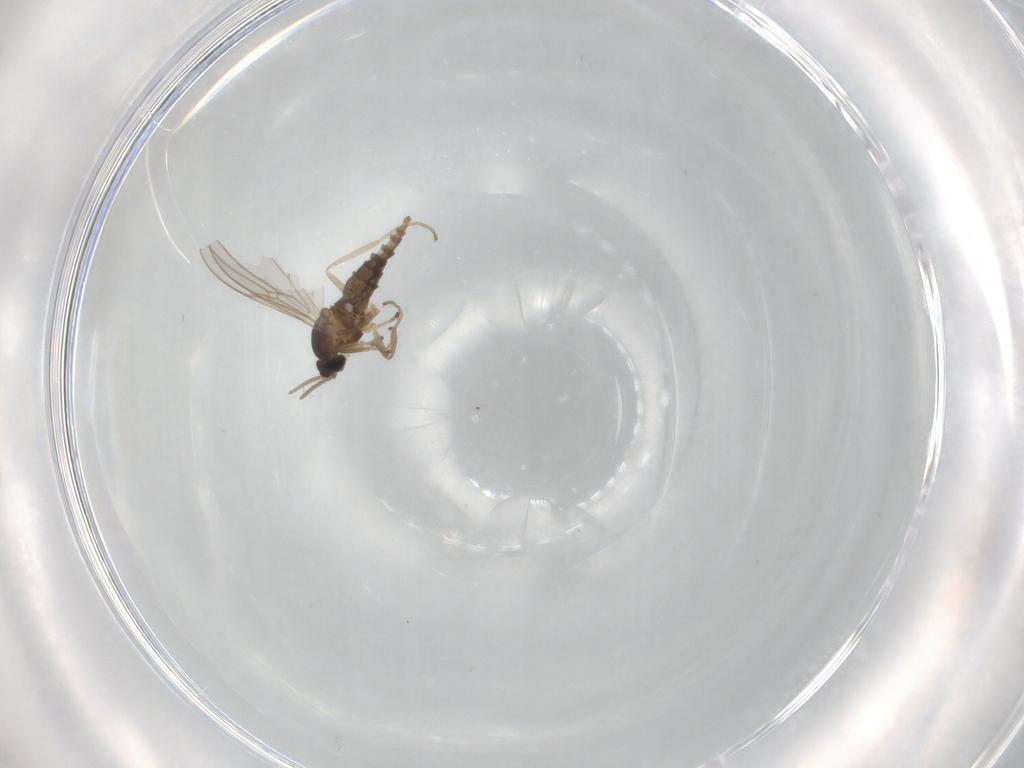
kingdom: Animalia
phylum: Arthropoda
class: Insecta
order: Diptera
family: Cecidomyiidae
